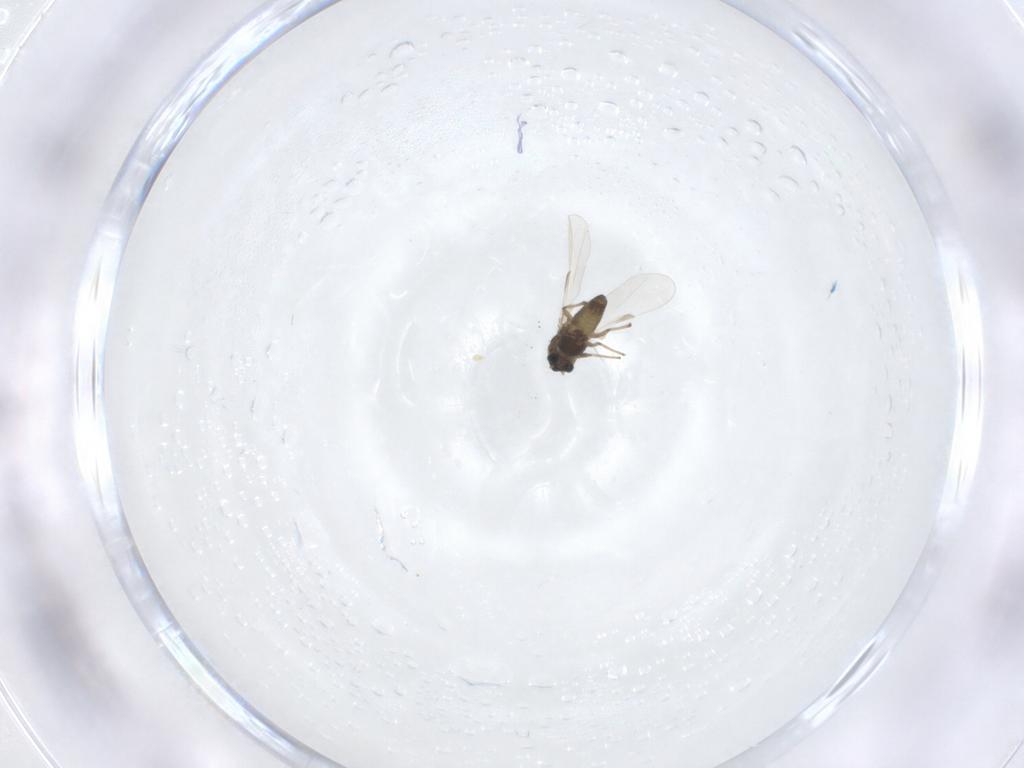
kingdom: Animalia
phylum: Arthropoda
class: Insecta
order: Diptera
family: Chironomidae
